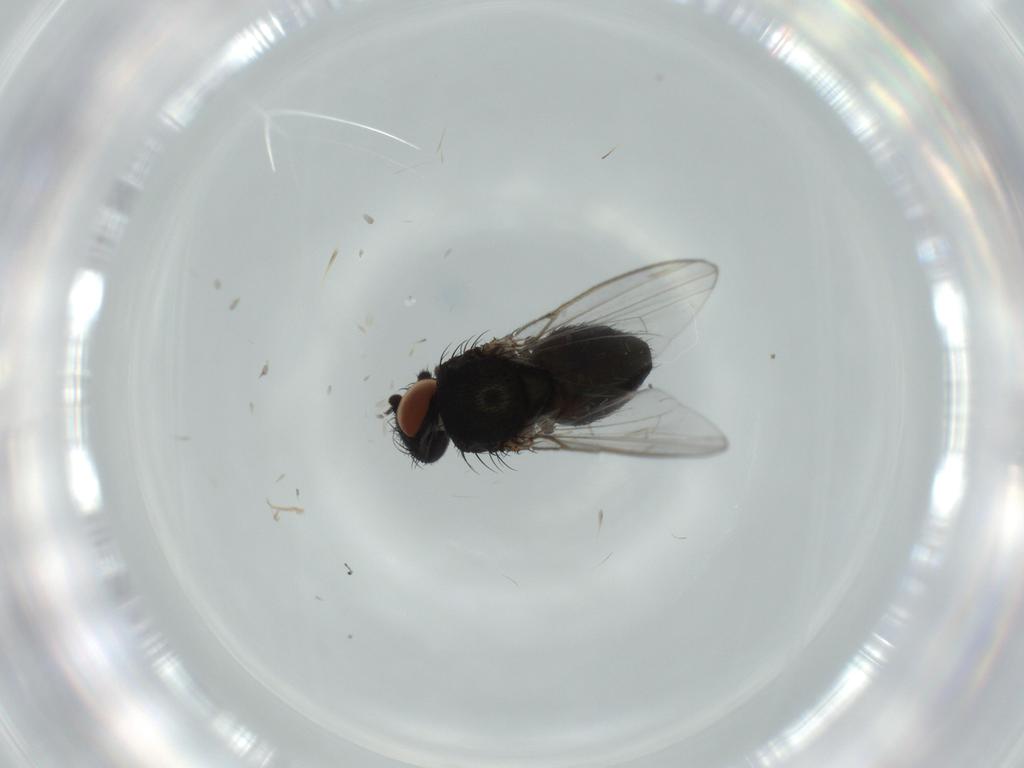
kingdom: Animalia
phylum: Arthropoda
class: Insecta
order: Diptera
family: Milichiidae
